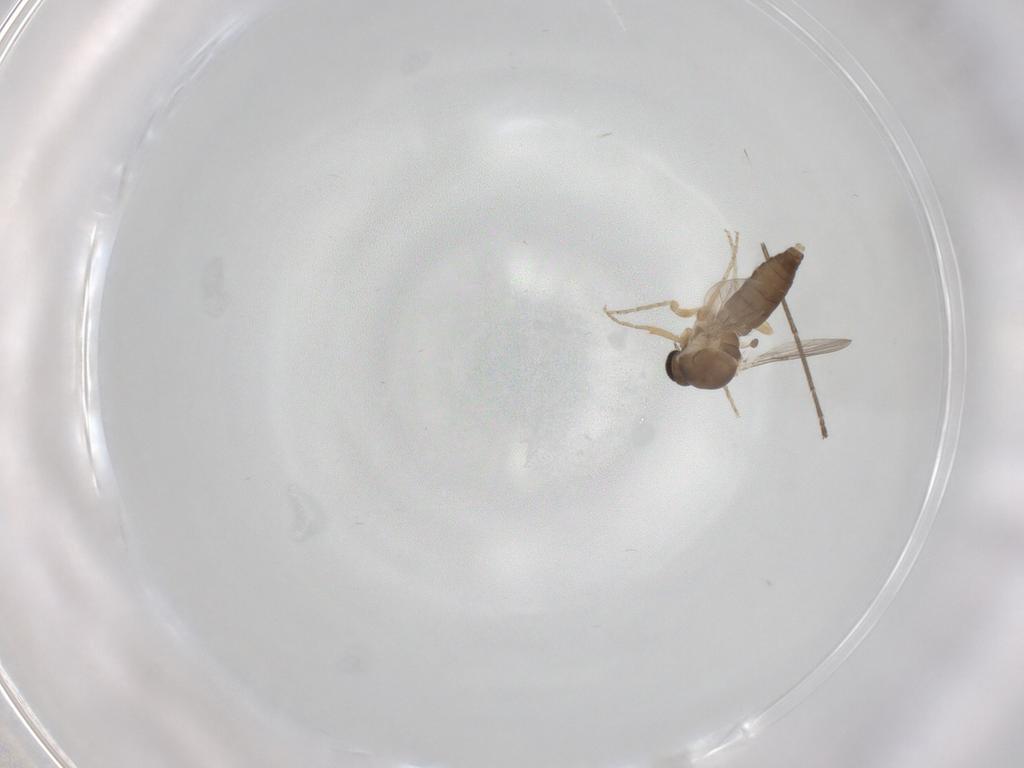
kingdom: Animalia
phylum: Arthropoda
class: Insecta
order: Diptera
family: Ceratopogonidae
